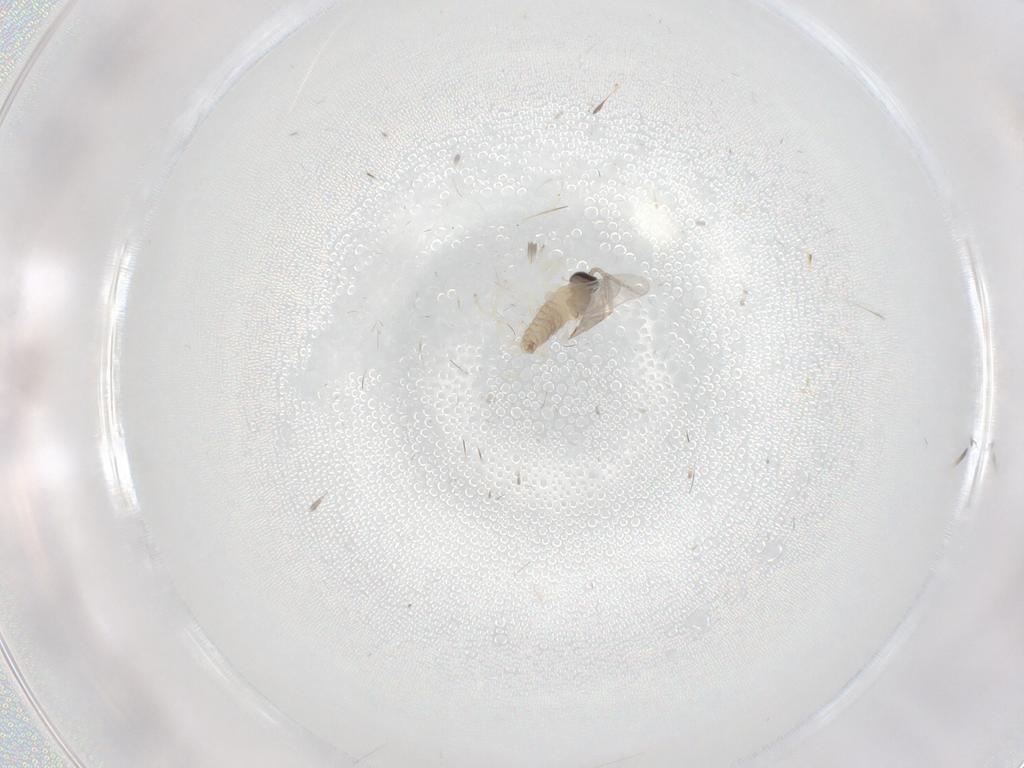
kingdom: Animalia
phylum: Arthropoda
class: Insecta
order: Diptera
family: Cecidomyiidae
